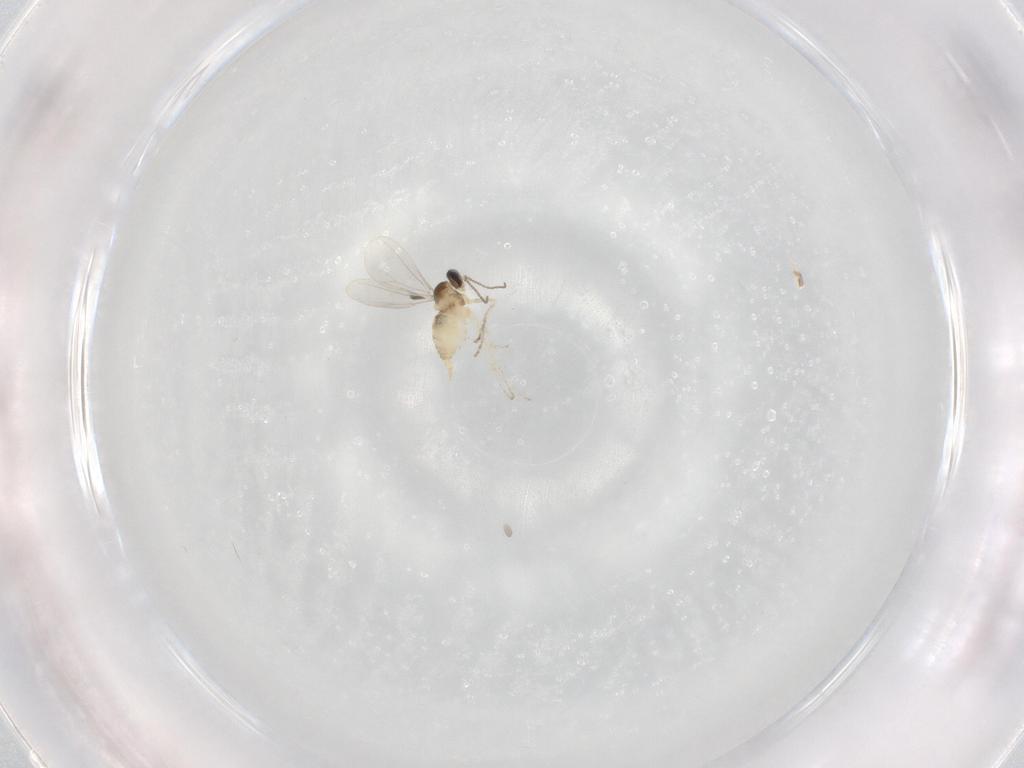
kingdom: Animalia
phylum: Arthropoda
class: Insecta
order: Diptera
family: Cecidomyiidae
